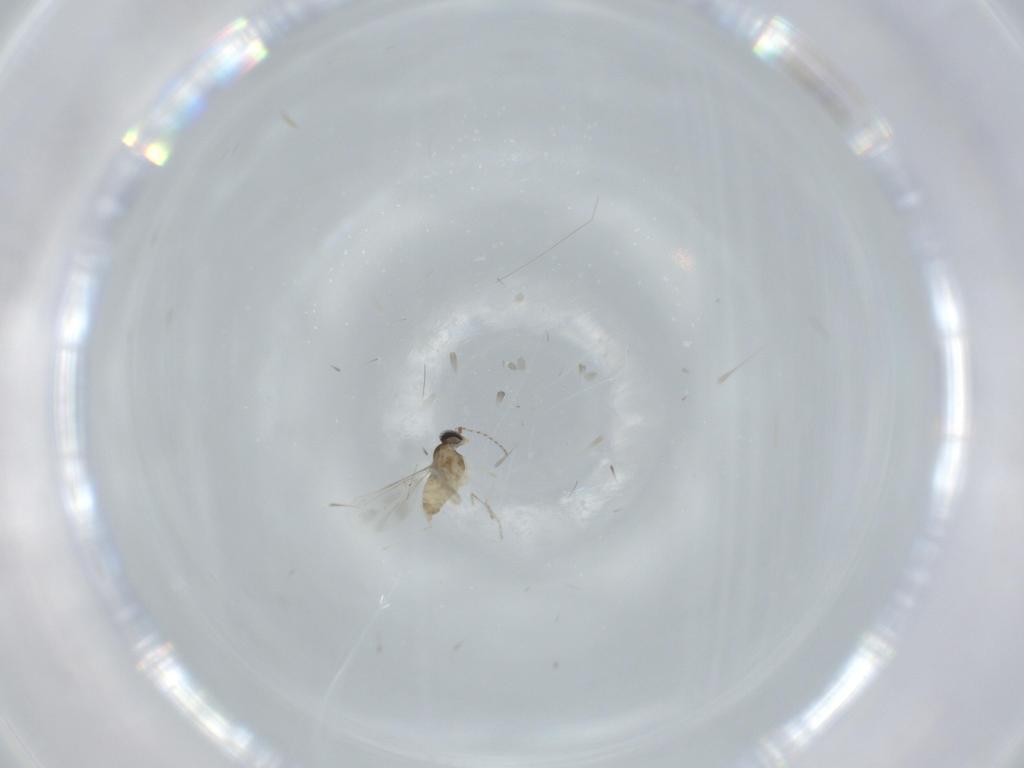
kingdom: Animalia
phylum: Arthropoda
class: Insecta
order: Diptera
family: Cecidomyiidae
